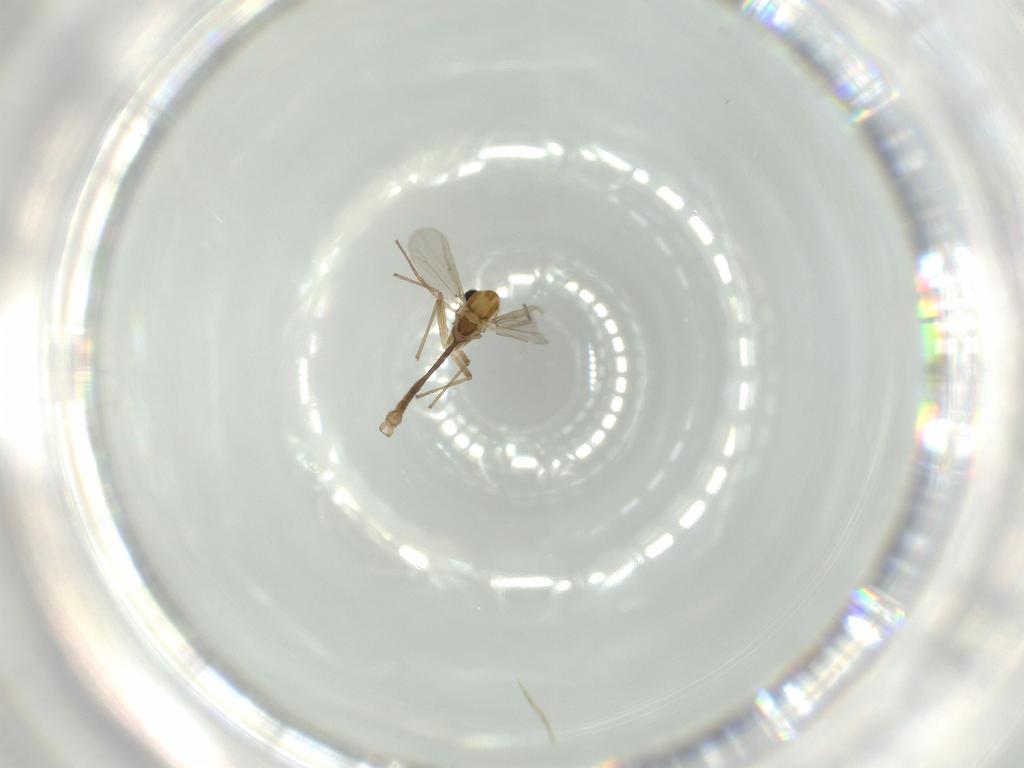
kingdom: Animalia
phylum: Arthropoda
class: Insecta
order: Diptera
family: Chironomidae
